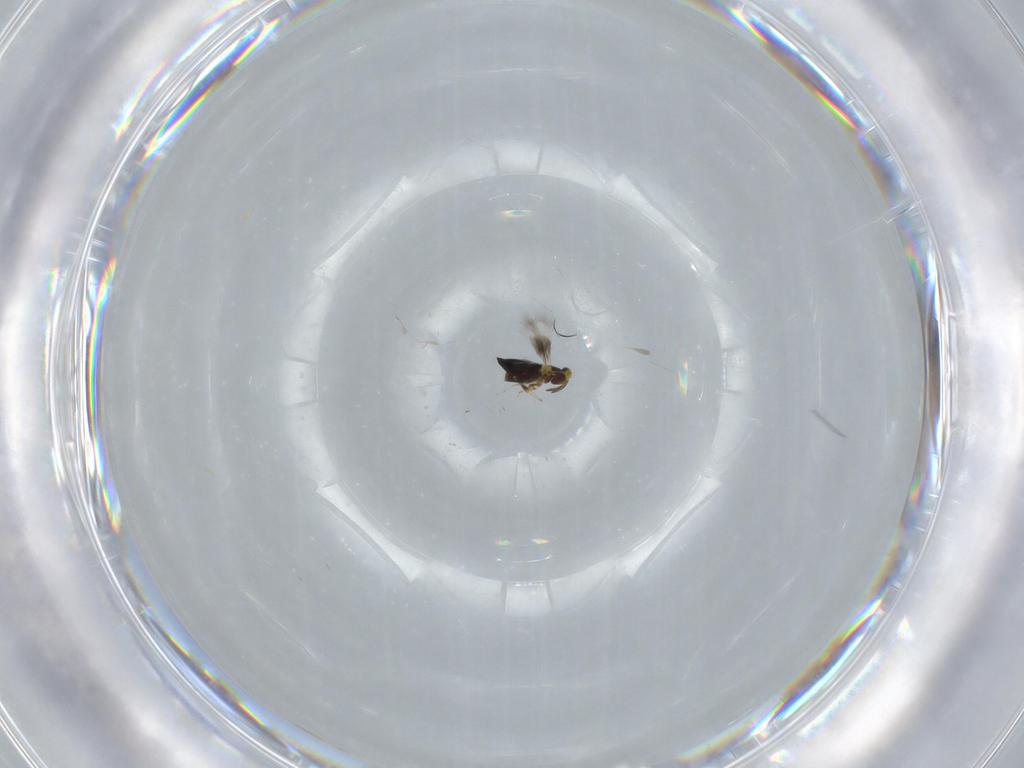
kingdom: Animalia
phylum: Arthropoda
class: Insecta
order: Hymenoptera
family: Signiphoridae
